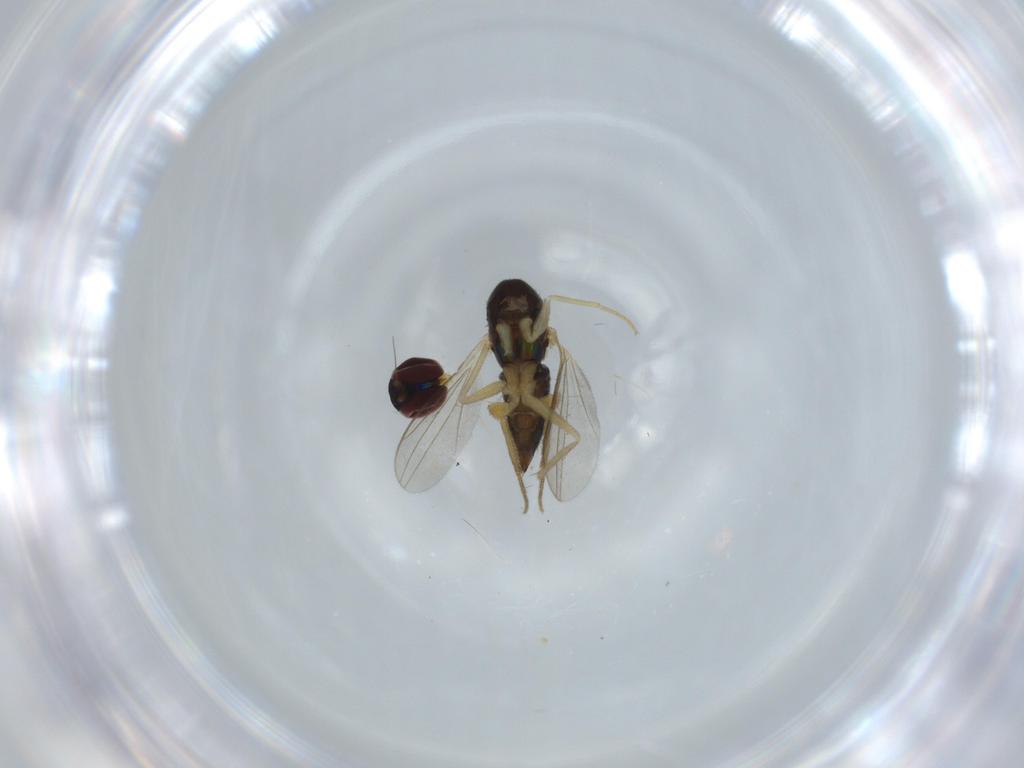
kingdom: Animalia
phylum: Arthropoda
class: Insecta
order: Diptera
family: Dolichopodidae
